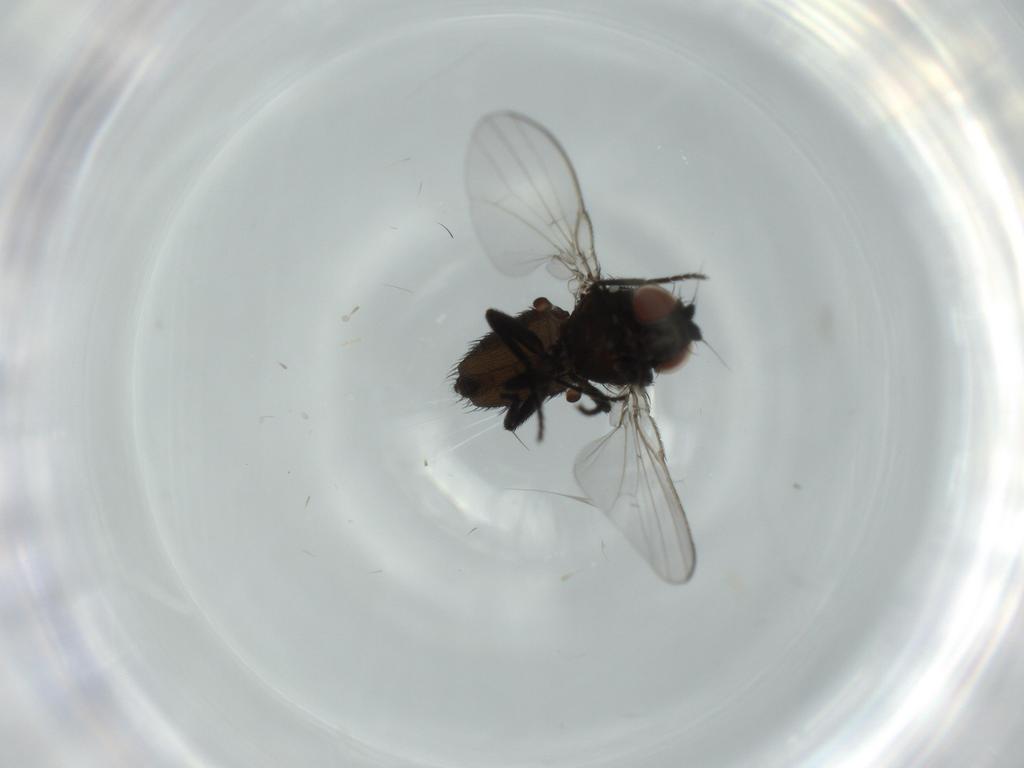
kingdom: Animalia
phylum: Arthropoda
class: Insecta
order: Diptera
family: Milichiidae
